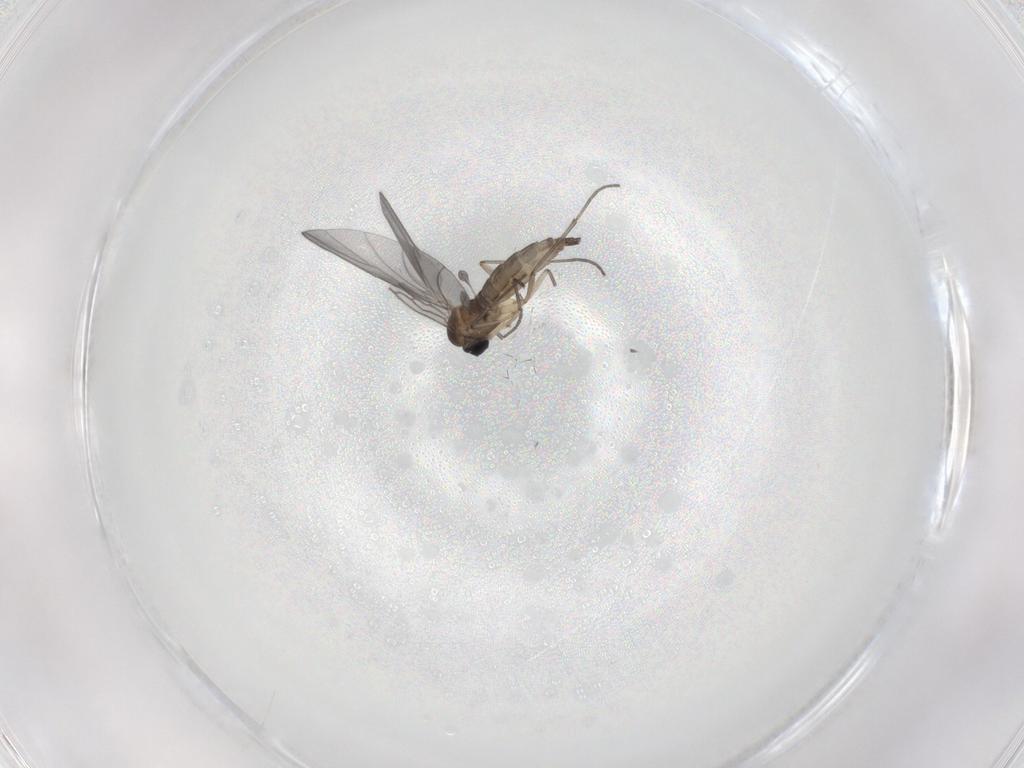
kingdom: Animalia
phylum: Arthropoda
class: Insecta
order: Diptera
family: Sciaridae
